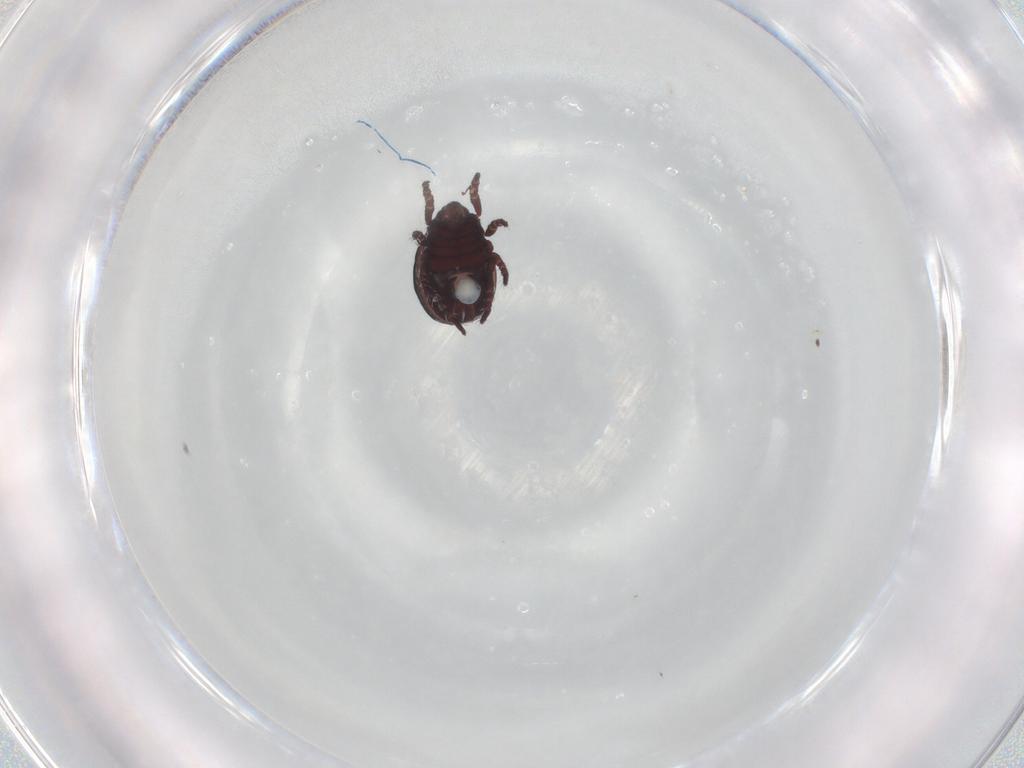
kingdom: Animalia
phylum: Arthropoda
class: Arachnida
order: Sarcoptiformes
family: Hermanniidae
